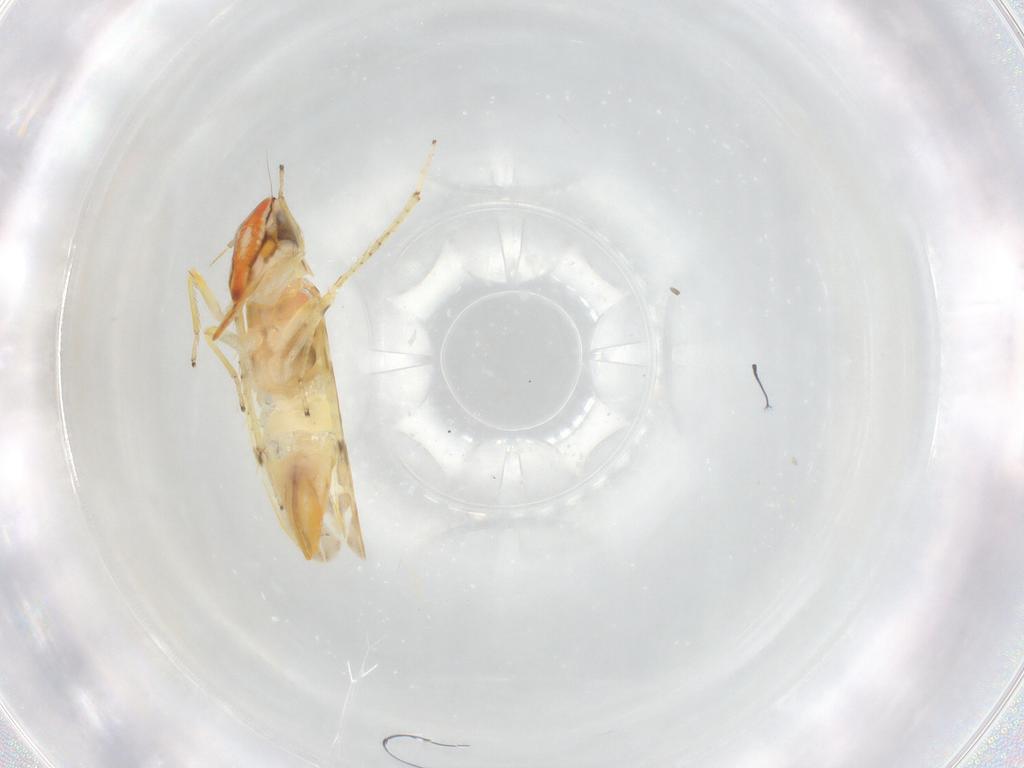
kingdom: Animalia
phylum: Arthropoda
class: Insecta
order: Hemiptera
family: Cicadellidae
